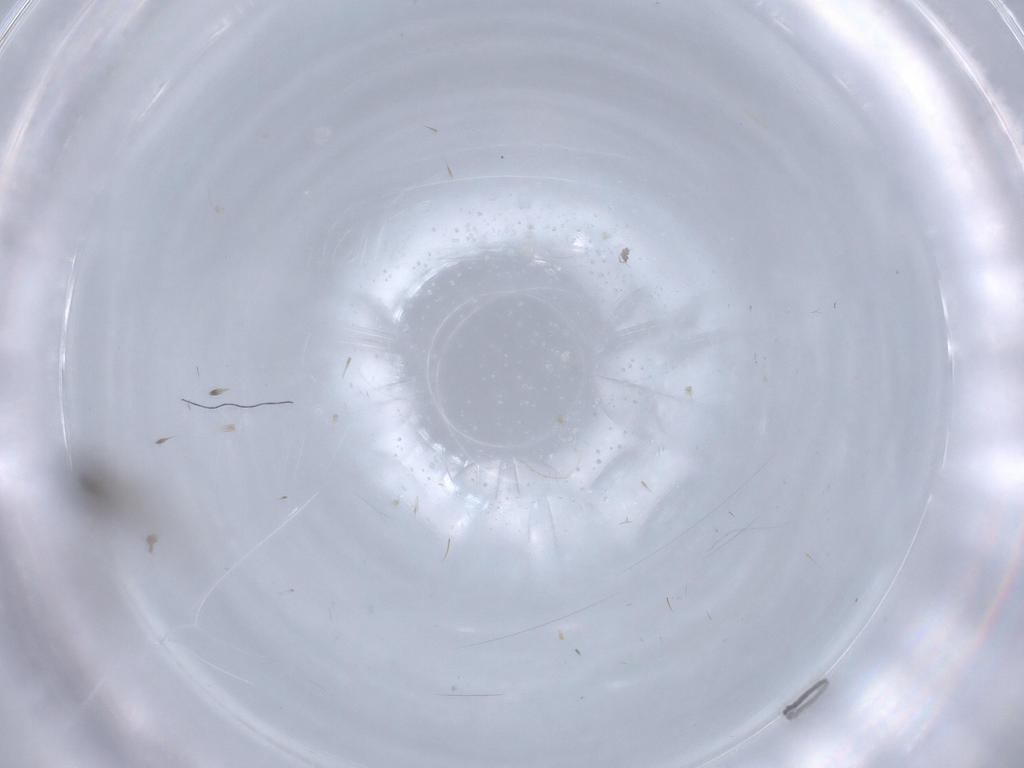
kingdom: Animalia
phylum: Arthropoda
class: Insecta
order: Diptera
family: Cecidomyiidae
